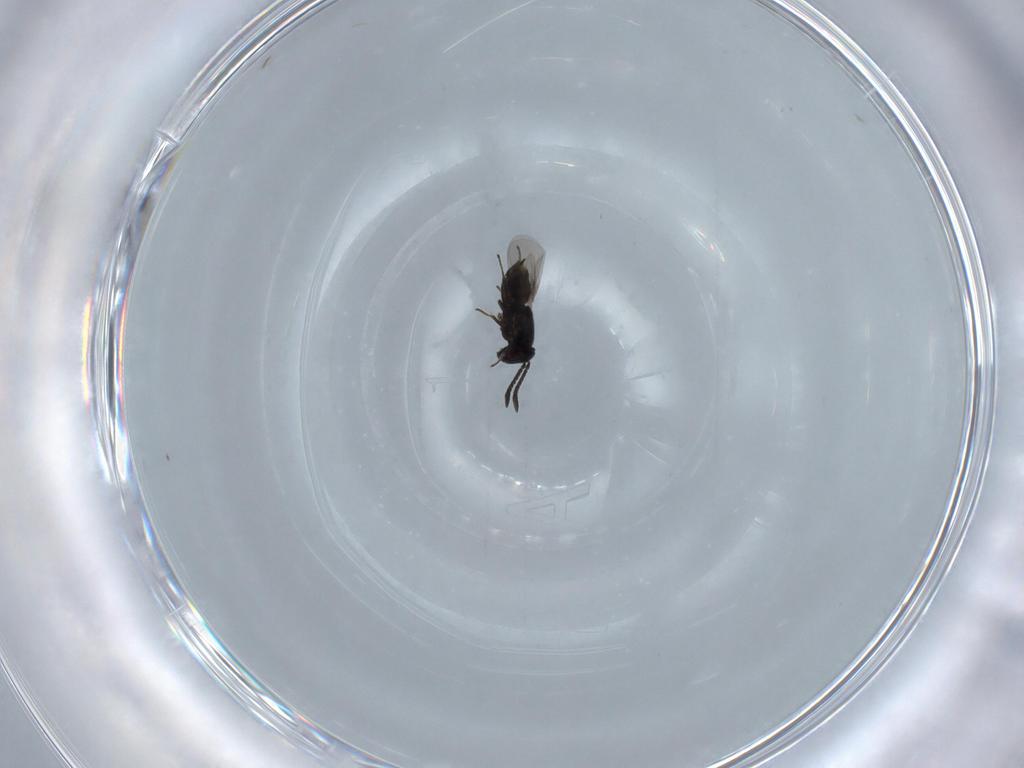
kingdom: Animalia
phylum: Arthropoda
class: Insecta
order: Hymenoptera
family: Encyrtidae
